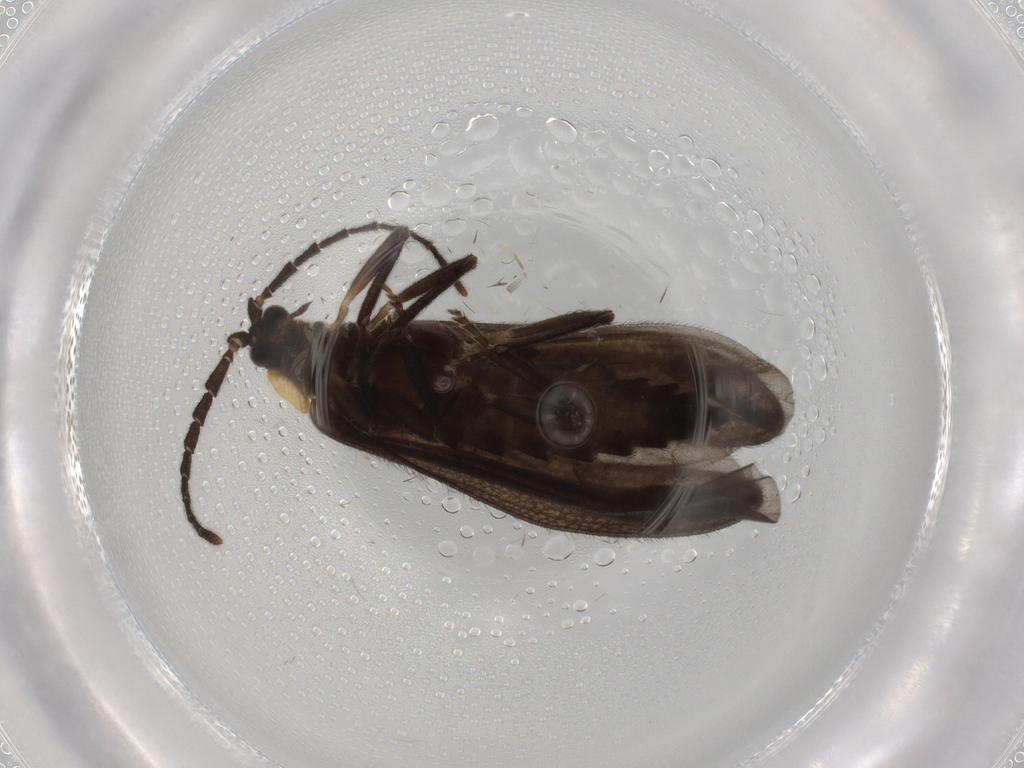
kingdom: Animalia
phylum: Arthropoda
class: Insecta
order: Coleoptera
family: Lycidae
